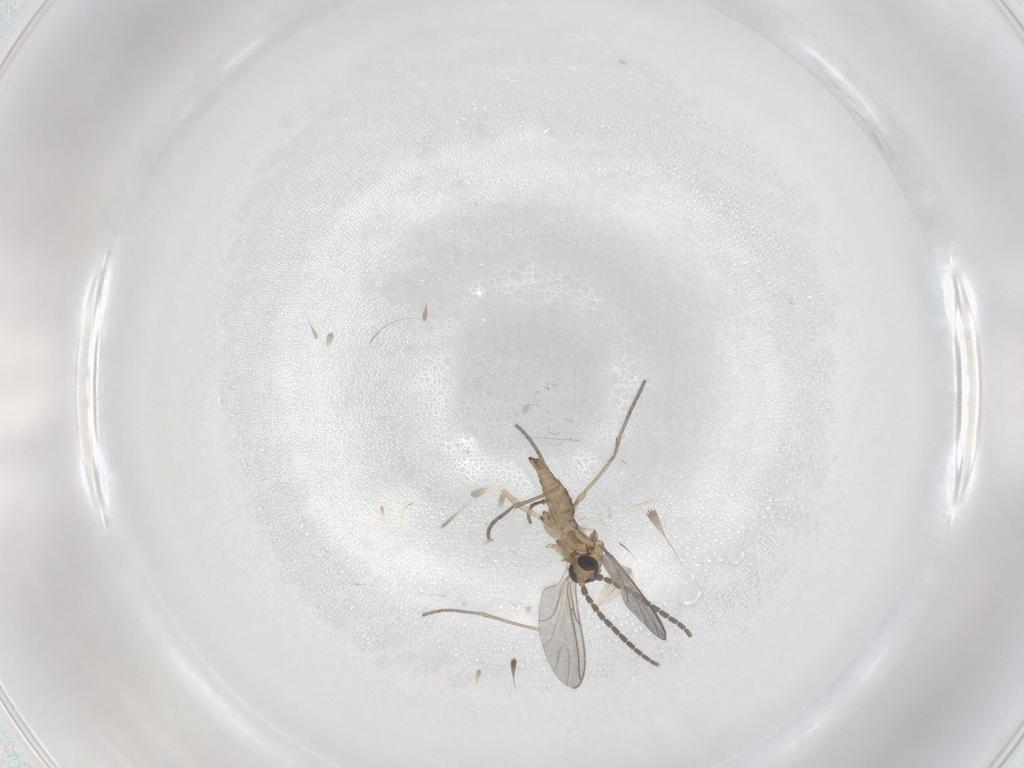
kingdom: Animalia
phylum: Arthropoda
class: Insecta
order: Diptera
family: Sciaridae
